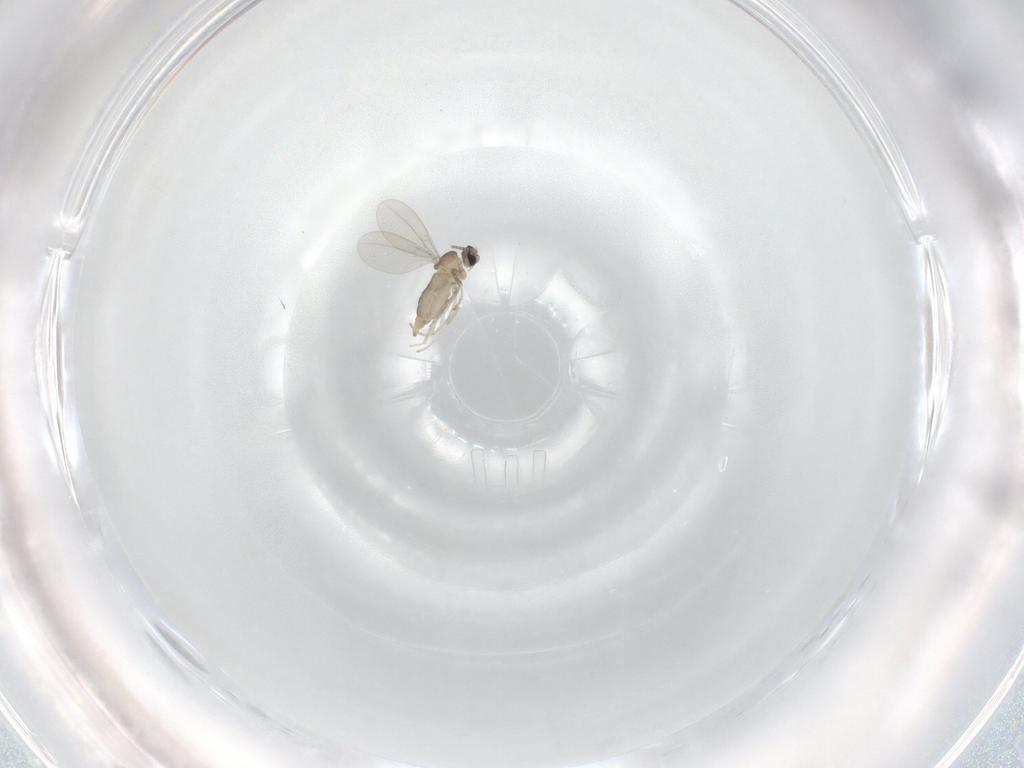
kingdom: Animalia
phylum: Arthropoda
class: Insecta
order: Diptera
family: Cecidomyiidae
